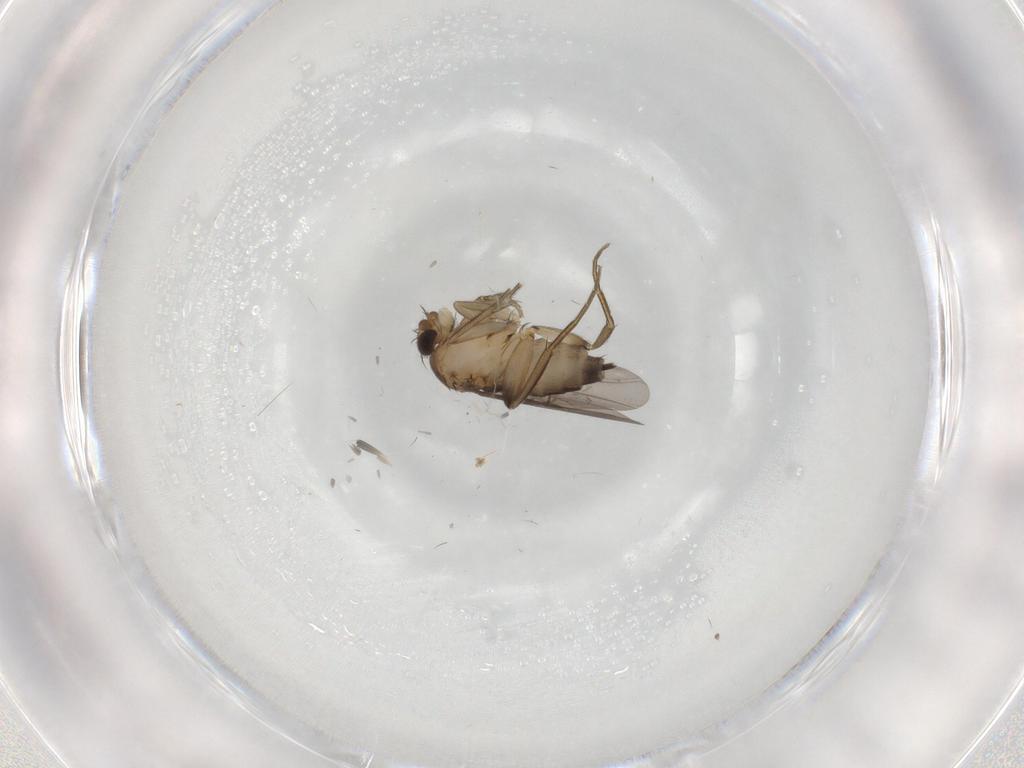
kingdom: Animalia
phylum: Arthropoda
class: Insecta
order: Diptera
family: Phoridae
